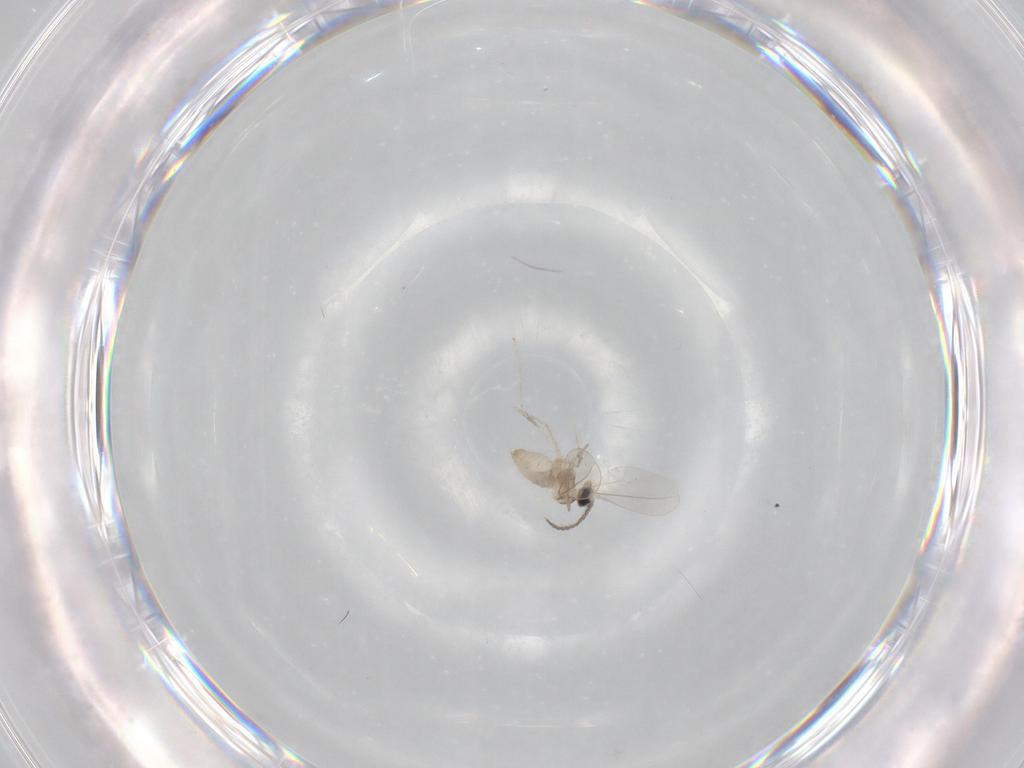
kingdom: Animalia
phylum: Arthropoda
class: Insecta
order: Diptera
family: Cecidomyiidae
